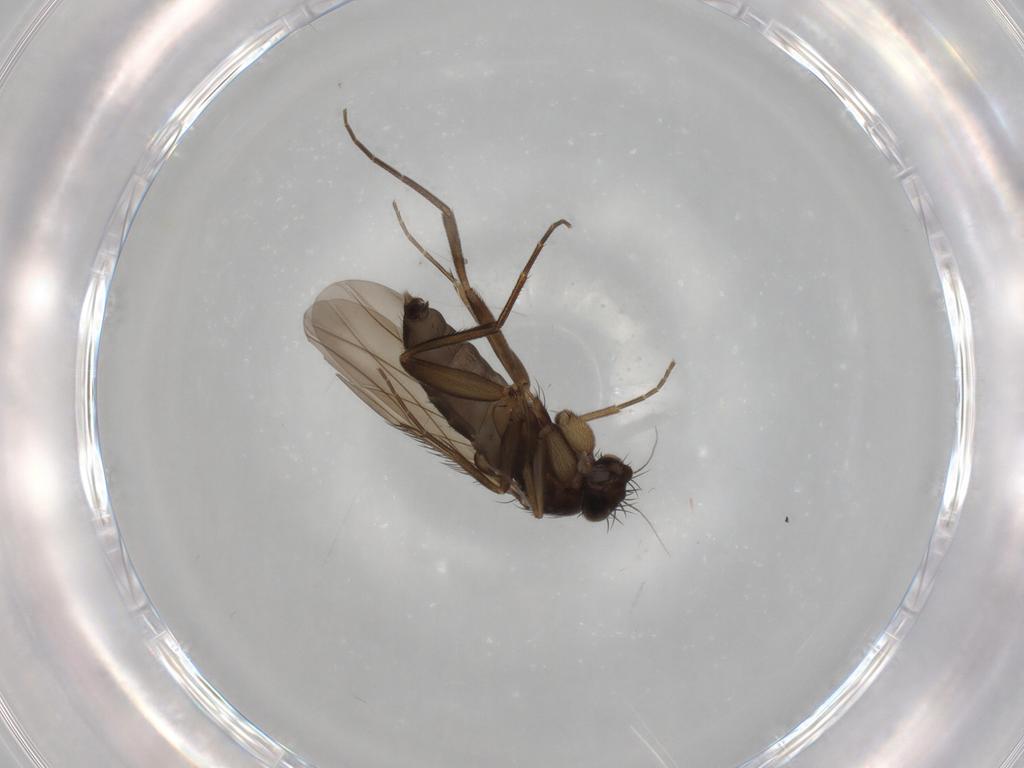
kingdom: Animalia
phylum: Arthropoda
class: Insecta
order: Diptera
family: Phoridae
